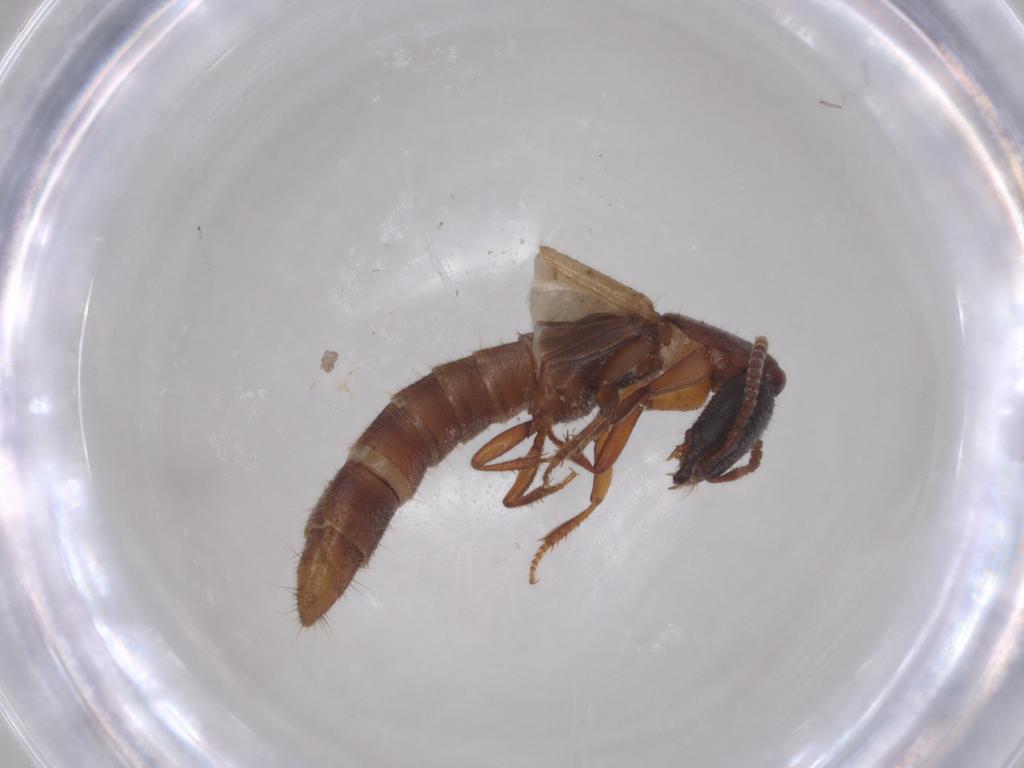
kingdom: Animalia
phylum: Arthropoda
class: Insecta
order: Coleoptera
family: Staphylinidae
